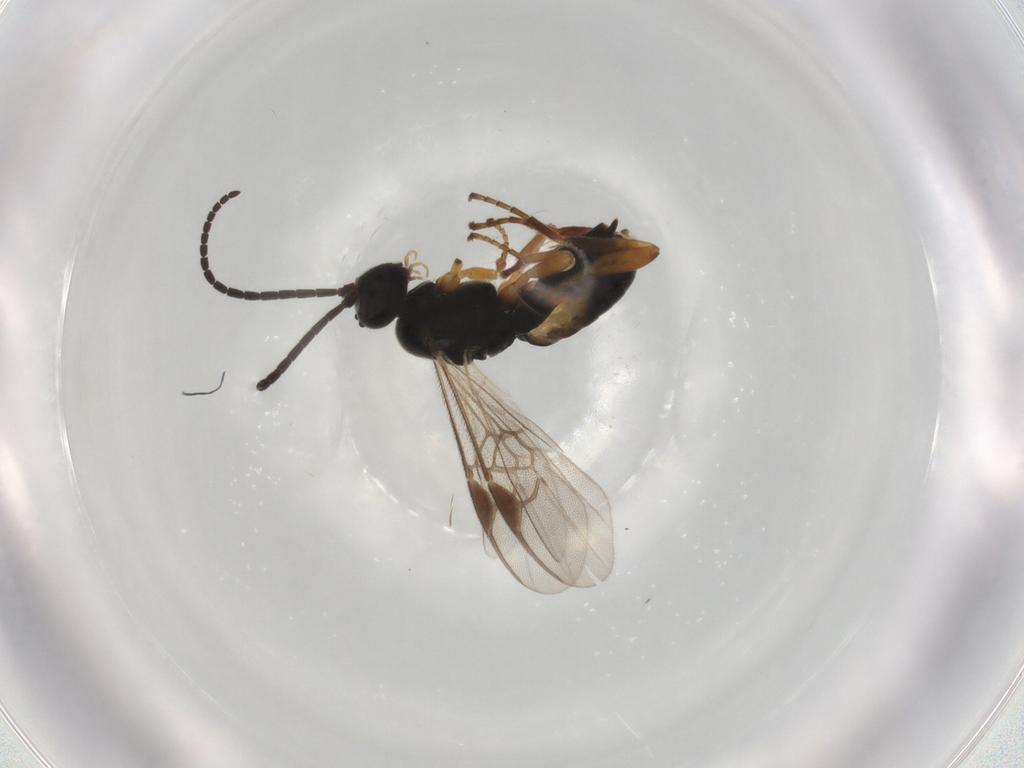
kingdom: Animalia
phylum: Arthropoda
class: Insecta
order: Hymenoptera
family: Braconidae
